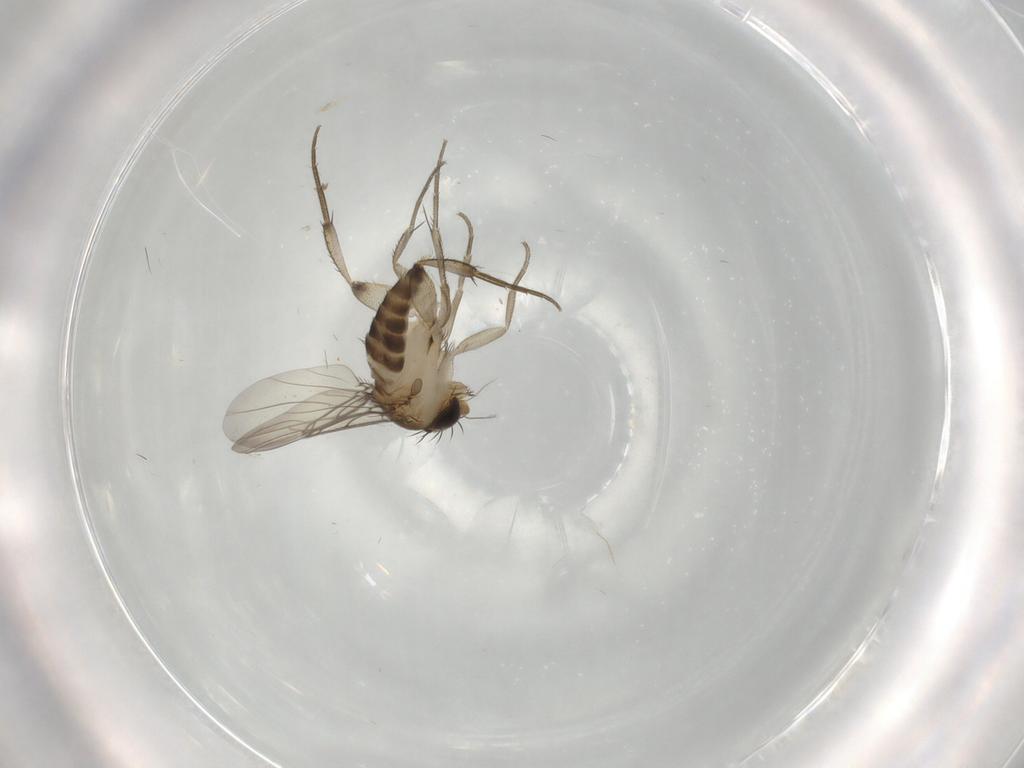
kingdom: Animalia
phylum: Arthropoda
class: Insecta
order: Diptera
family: Phoridae
